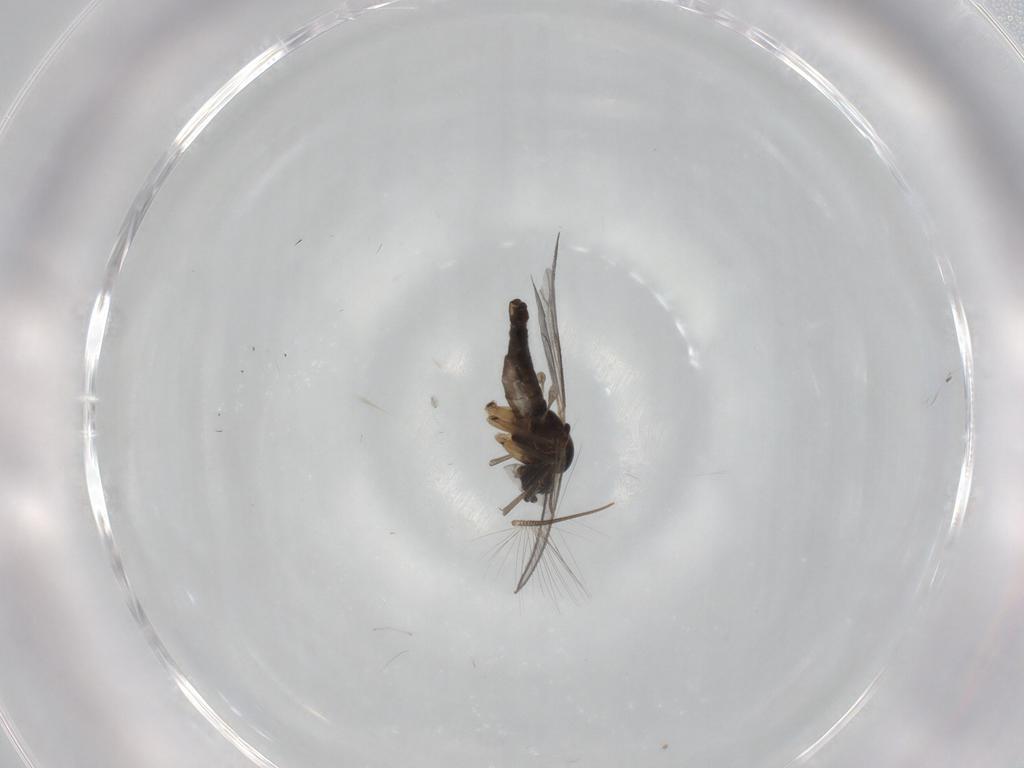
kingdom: Animalia
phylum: Arthropoda
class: Insecta
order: Diptera
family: Sciaridae
